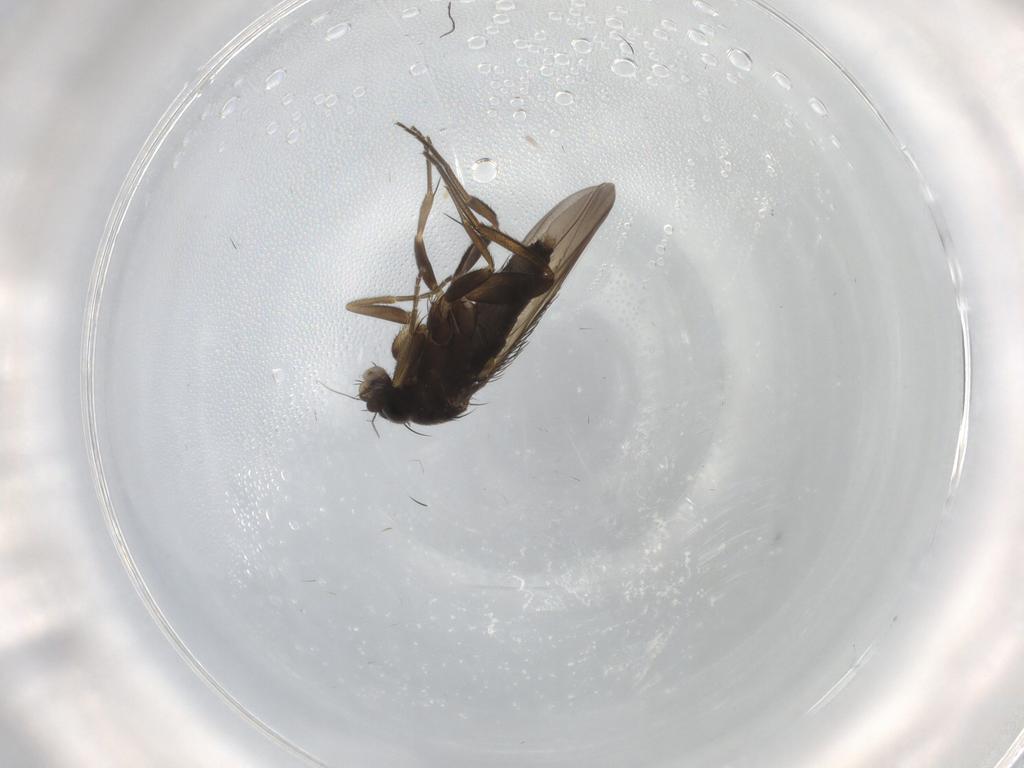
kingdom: Animalia
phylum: Arthropoda
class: Insecta
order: Diptera
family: Phoridae
